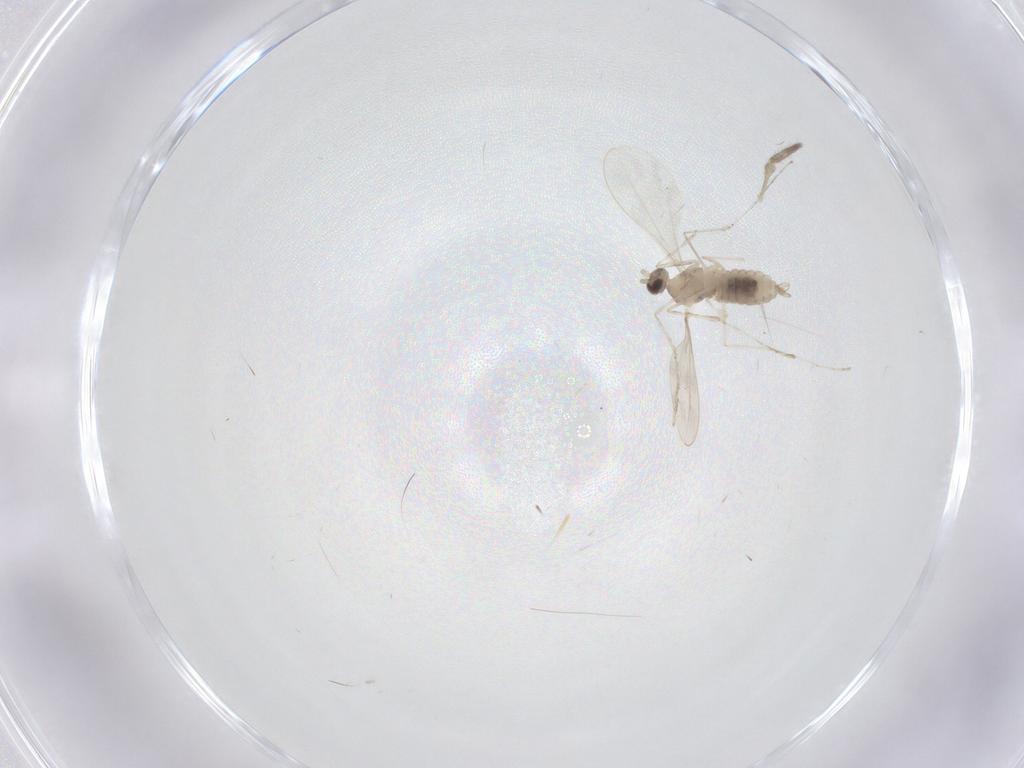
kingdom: Animalia
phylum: Arthropoda
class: Insecta
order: Diptera
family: Cecidomyiidae
